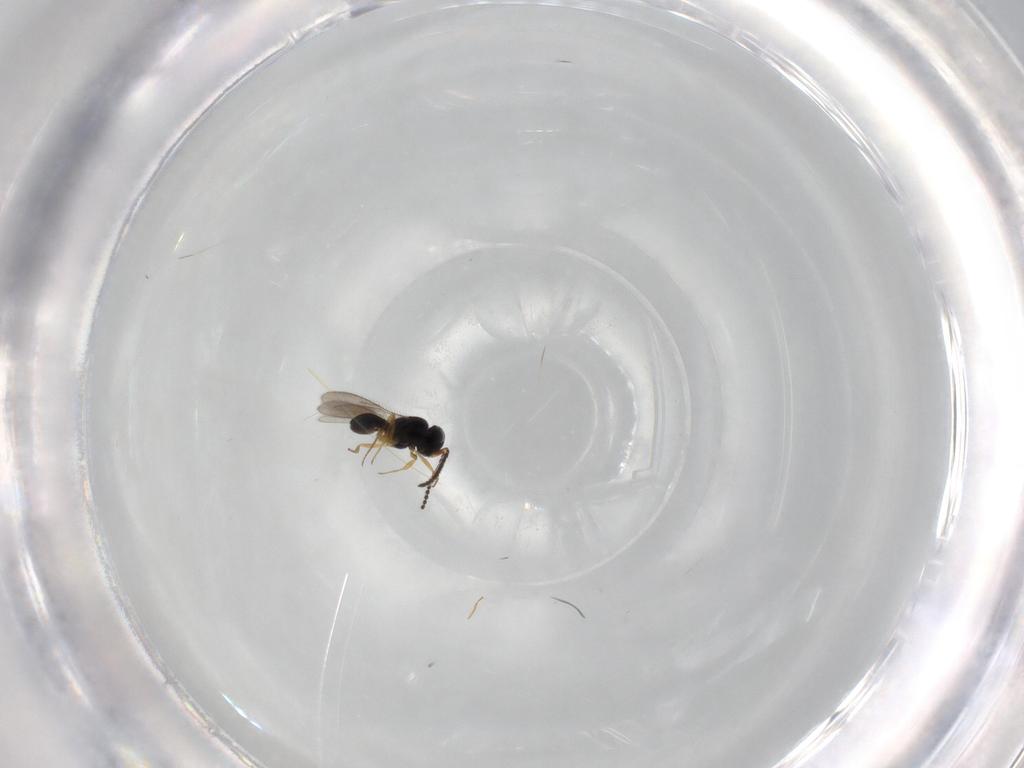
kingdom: Animalia
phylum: Arthropoda
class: Insecta
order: Hymenoptera
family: Scelionidae
